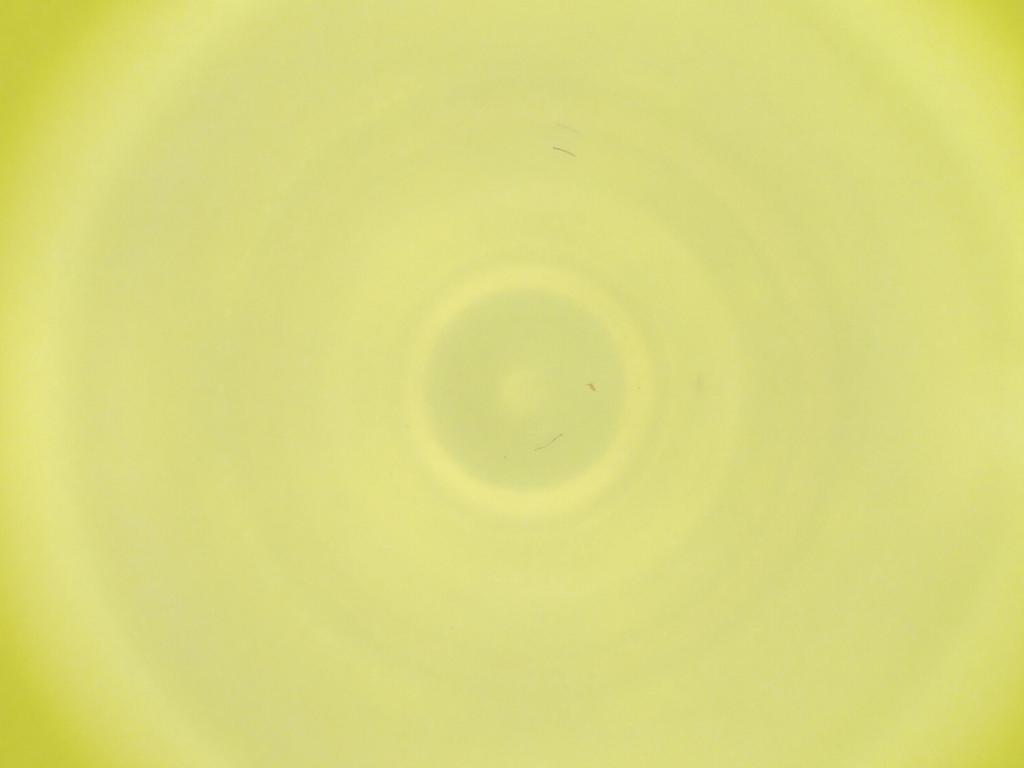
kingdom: Animalia
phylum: Arthropoda
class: Insecta
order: Diptera
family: Cecidomyiidae
